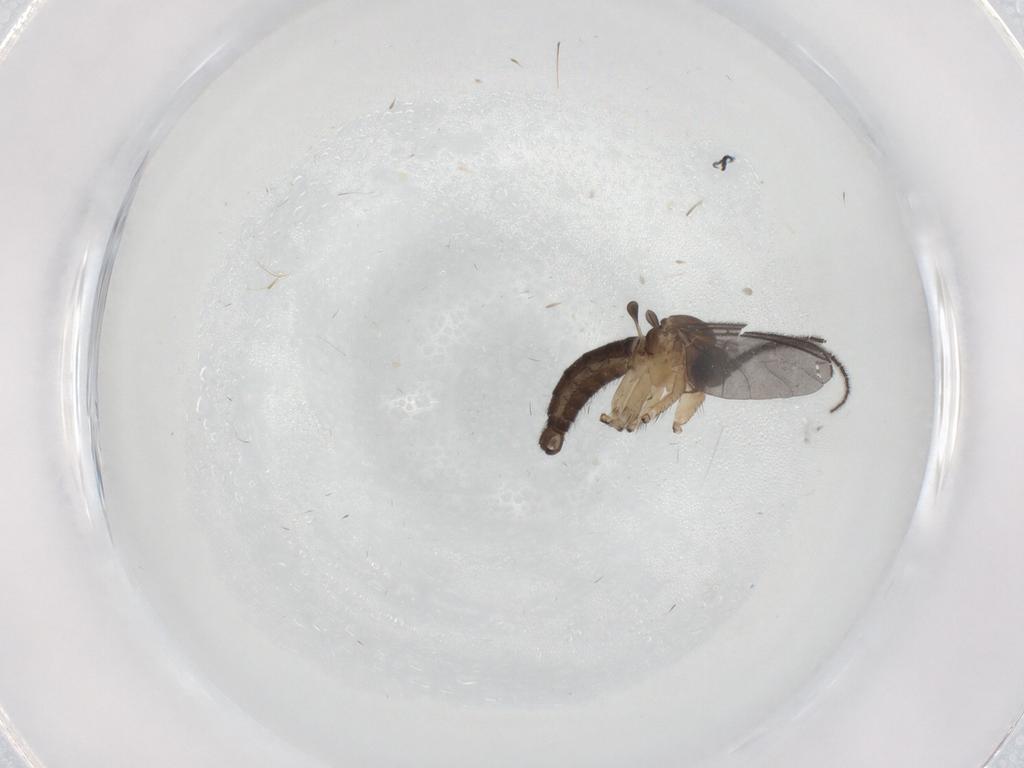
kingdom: Animalia
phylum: Arthropoda
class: Insecta
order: Diptera
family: Sciaridae
